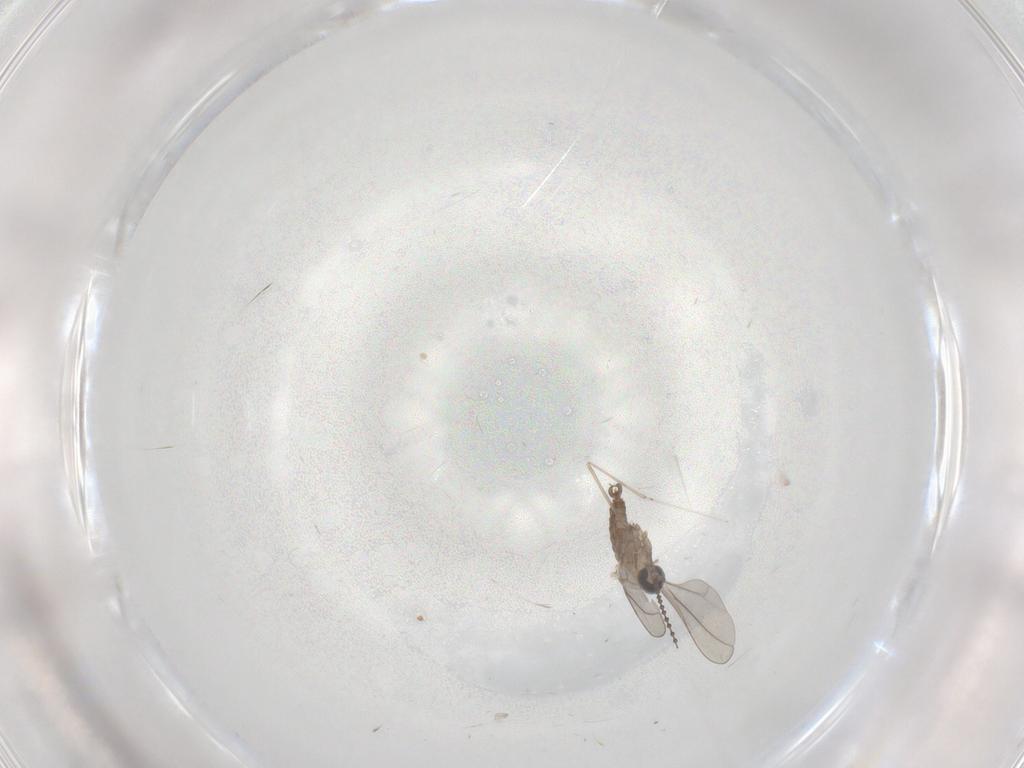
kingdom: Animalia
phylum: Arthropoda
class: Insecta
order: Diptera
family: Cecidomyiidae
